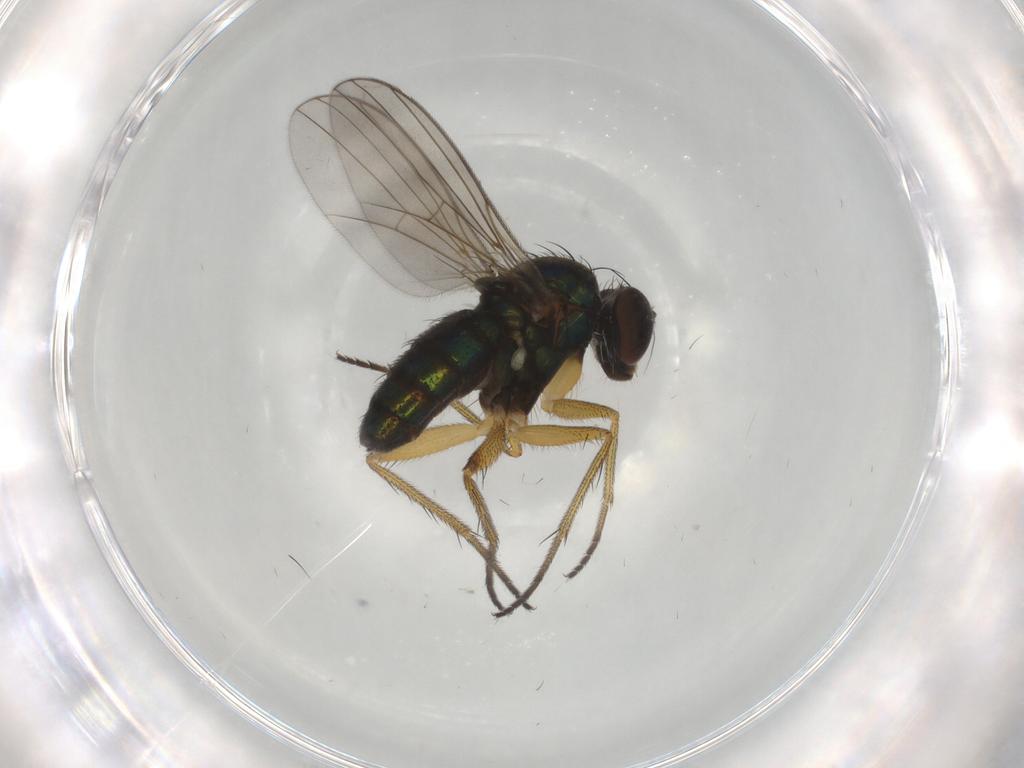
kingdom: Animalia
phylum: Arthropoda
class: Insecta
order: Diptera
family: Dolichopodidae
